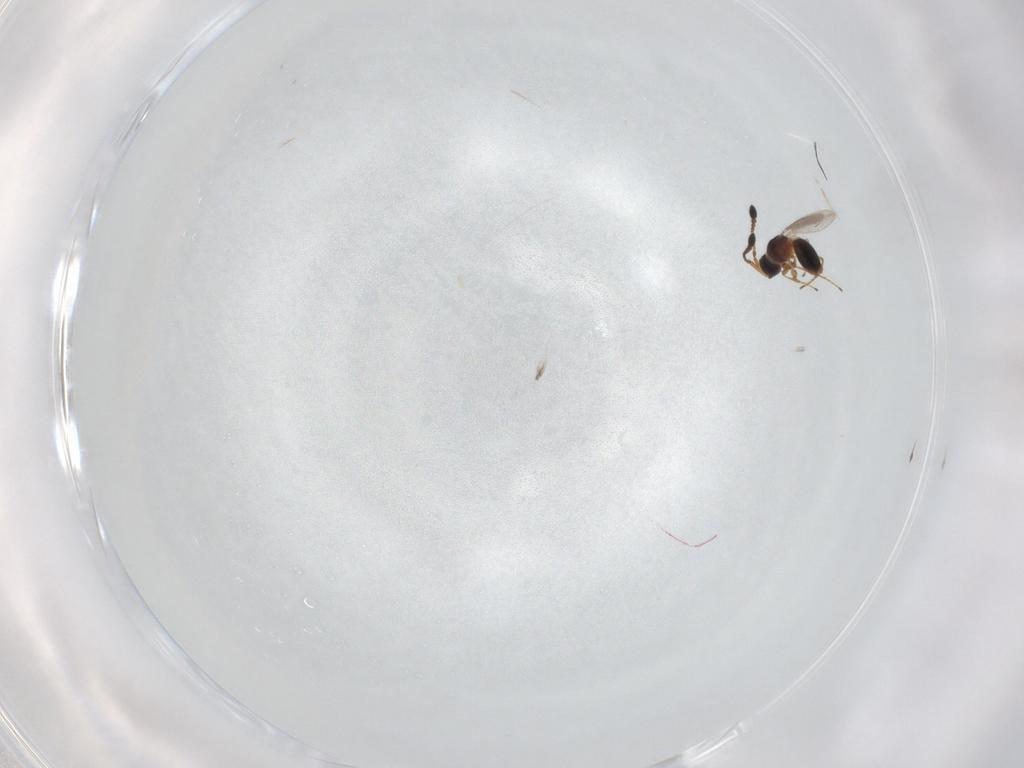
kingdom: Animalia
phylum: Arthropoda
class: Insecta
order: Hymenoptera
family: Diapriidae
